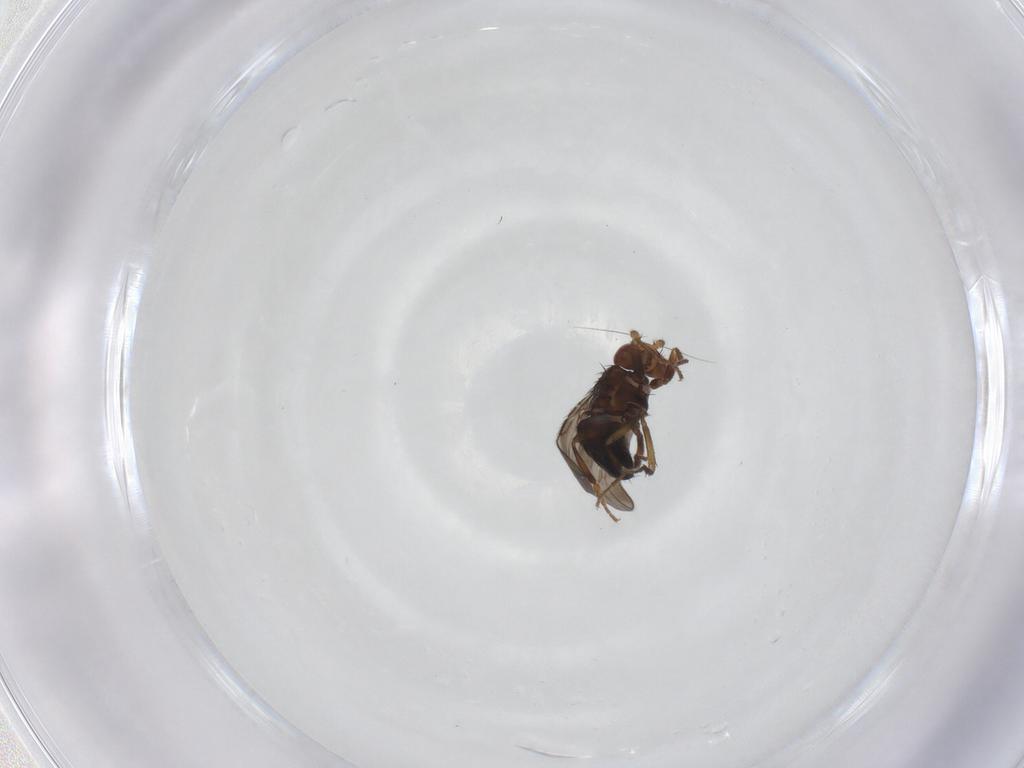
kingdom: Animalia
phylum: Arthropoda
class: Insecta
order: Diptera
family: Sphaeroceridae
